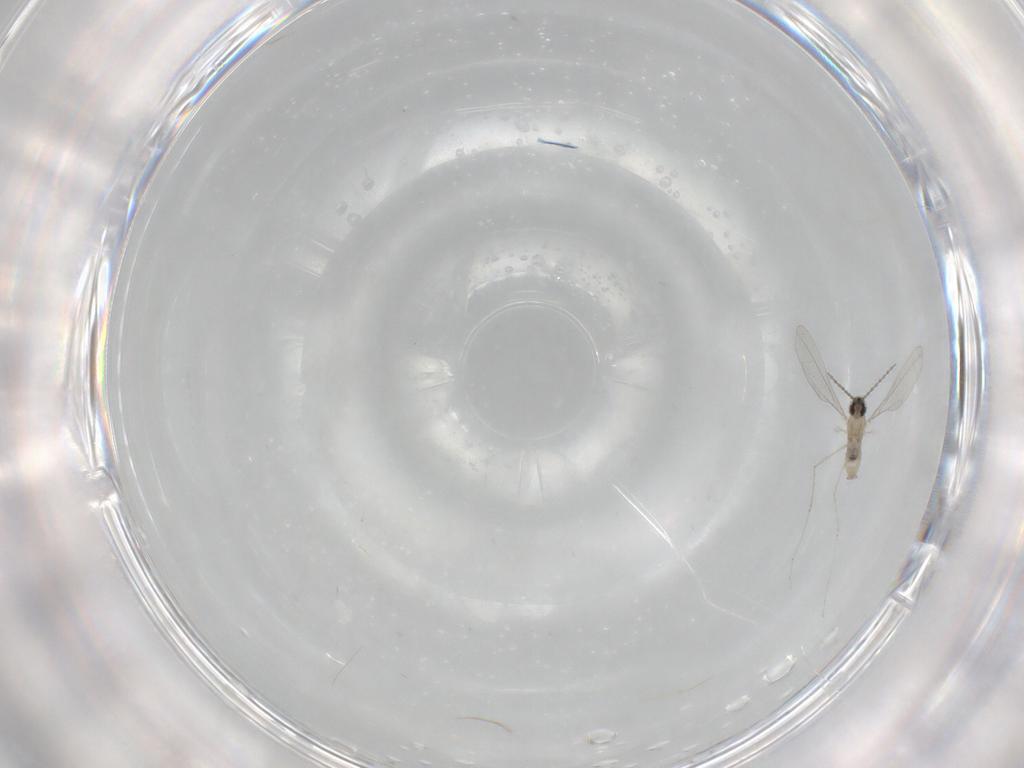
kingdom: Animalia
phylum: Arthropoda
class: Insecta
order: Diptera
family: Cecidomyiidae
